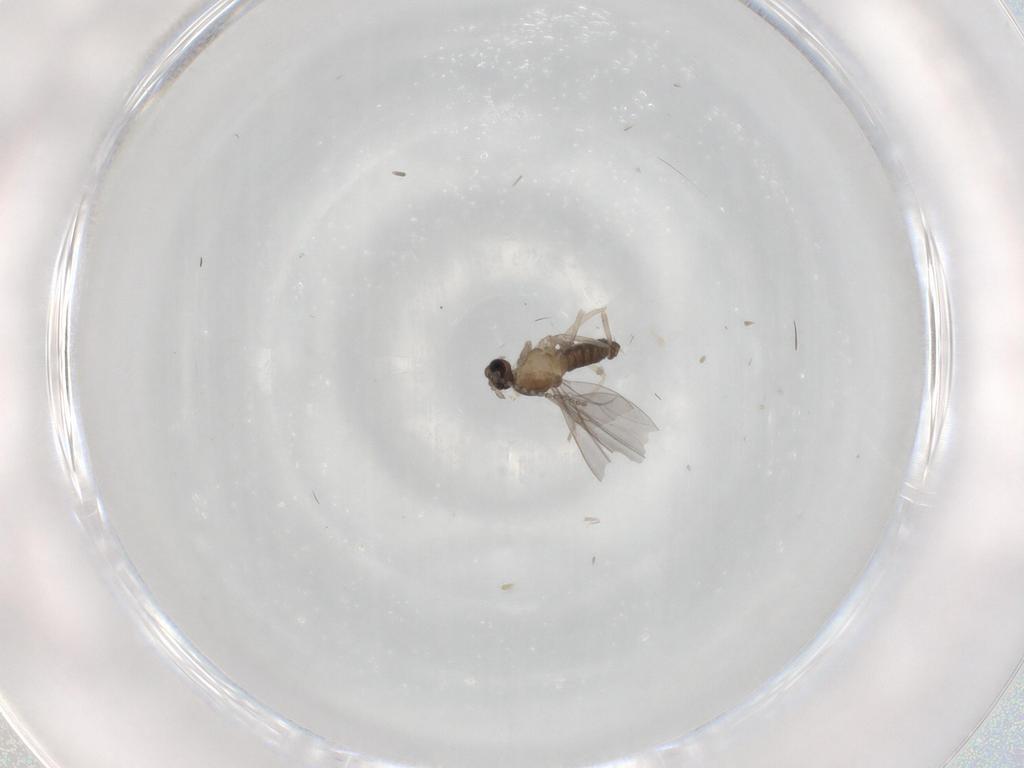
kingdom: Animalia
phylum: Arthropoda
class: Insecta
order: Diptera
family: Cecidomyiidae
